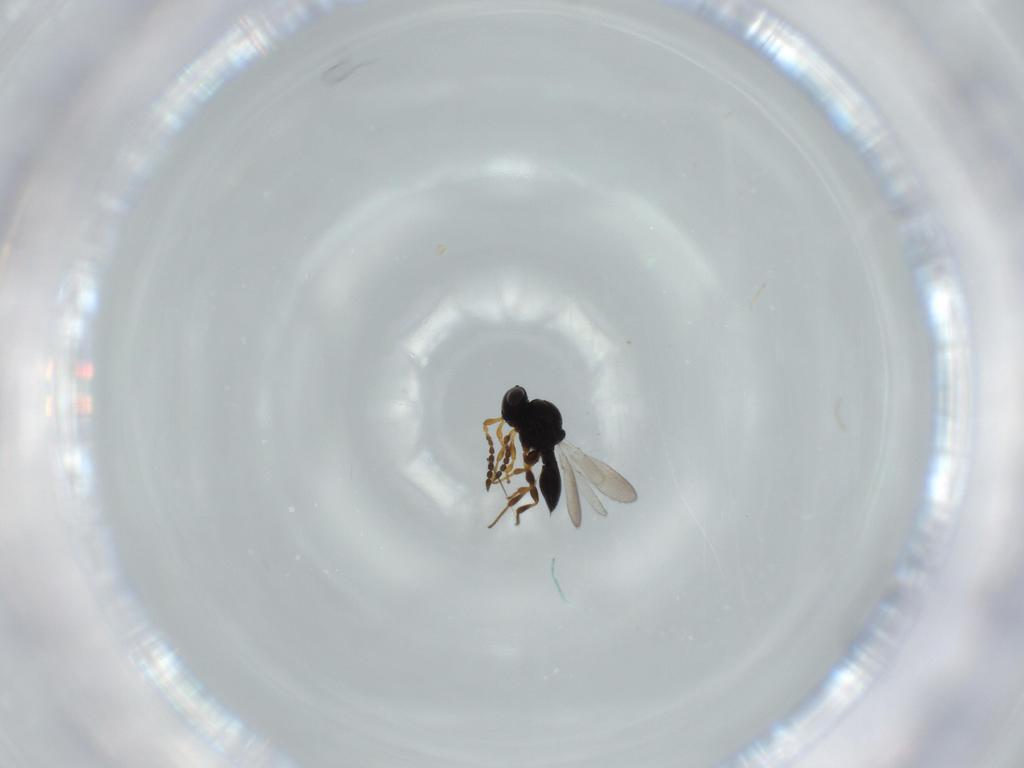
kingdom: Animalia
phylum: Arthropoda
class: Insecta
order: Hymenoptera
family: Platygastridae
